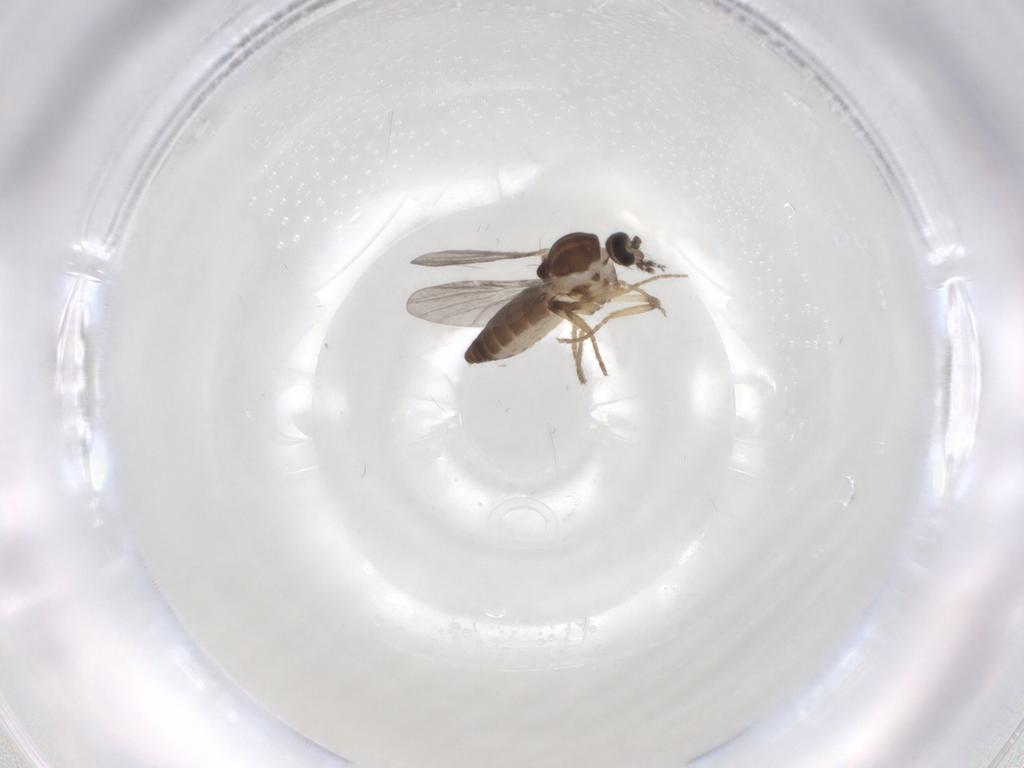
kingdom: Animalia
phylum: Arthropoda
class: Insecta
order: Diptera
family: Ceratopogonidae
